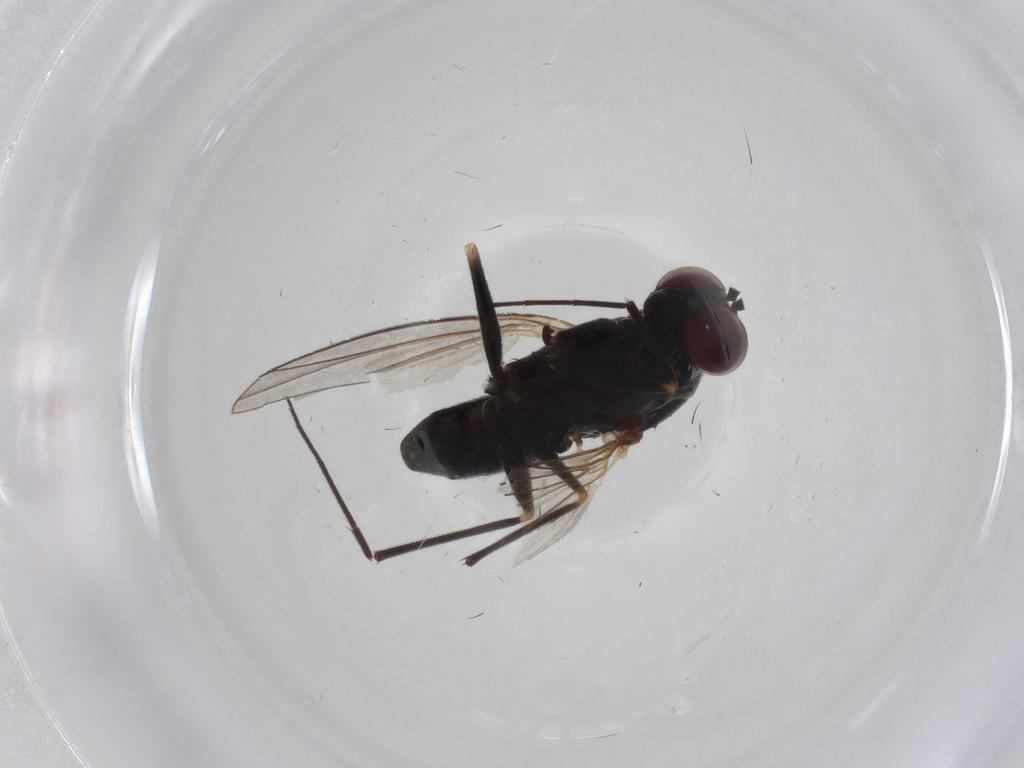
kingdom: Animalia
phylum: Arthropoda
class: Insecta
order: Diptera
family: Dolichopodidae
